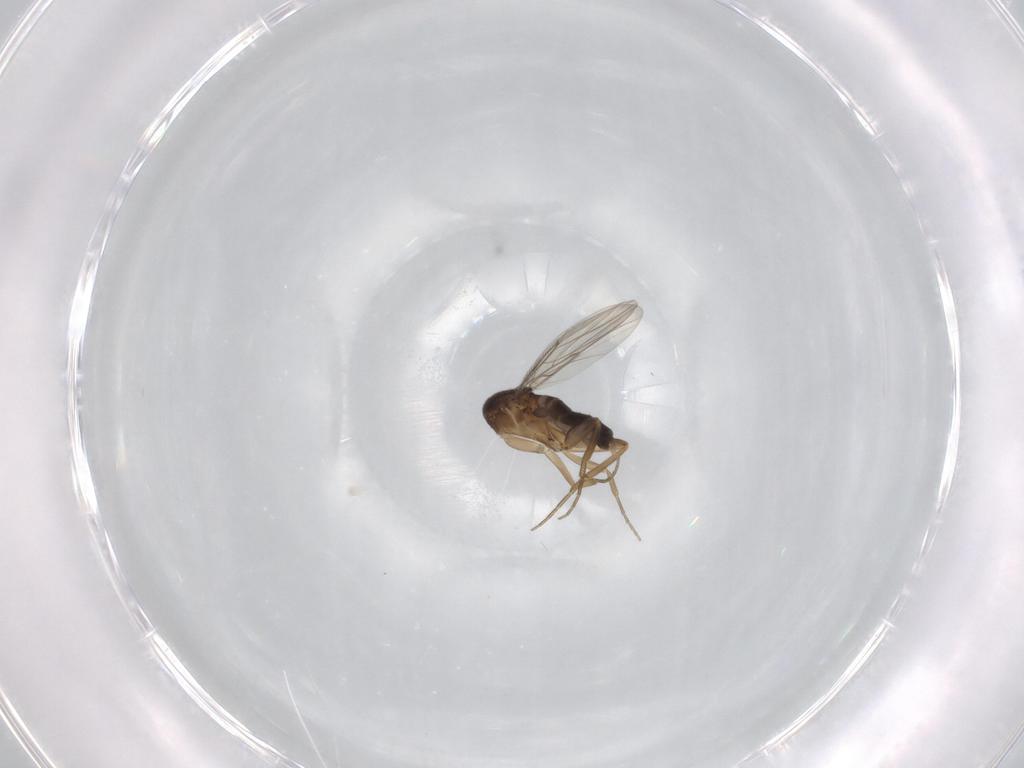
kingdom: Animalia
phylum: Arthropoda
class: Insecta
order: Diptera
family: Phoridae
